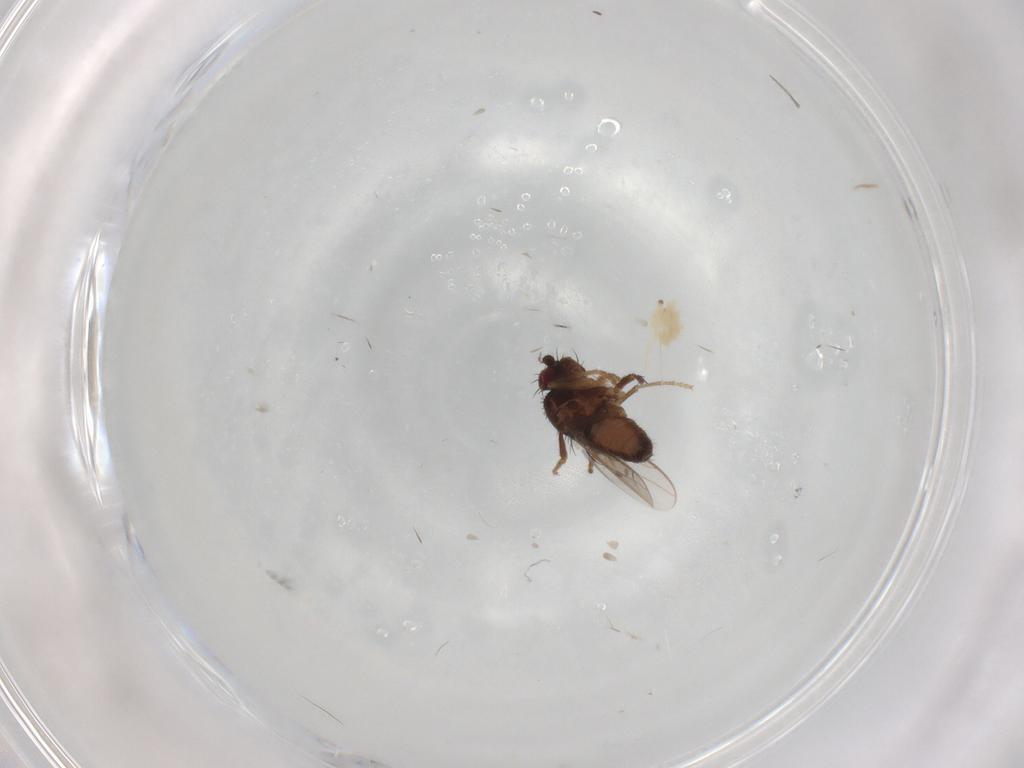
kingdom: Animalia
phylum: Arthropoda
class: Insecta
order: Diptera
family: Sphaeroceridae
